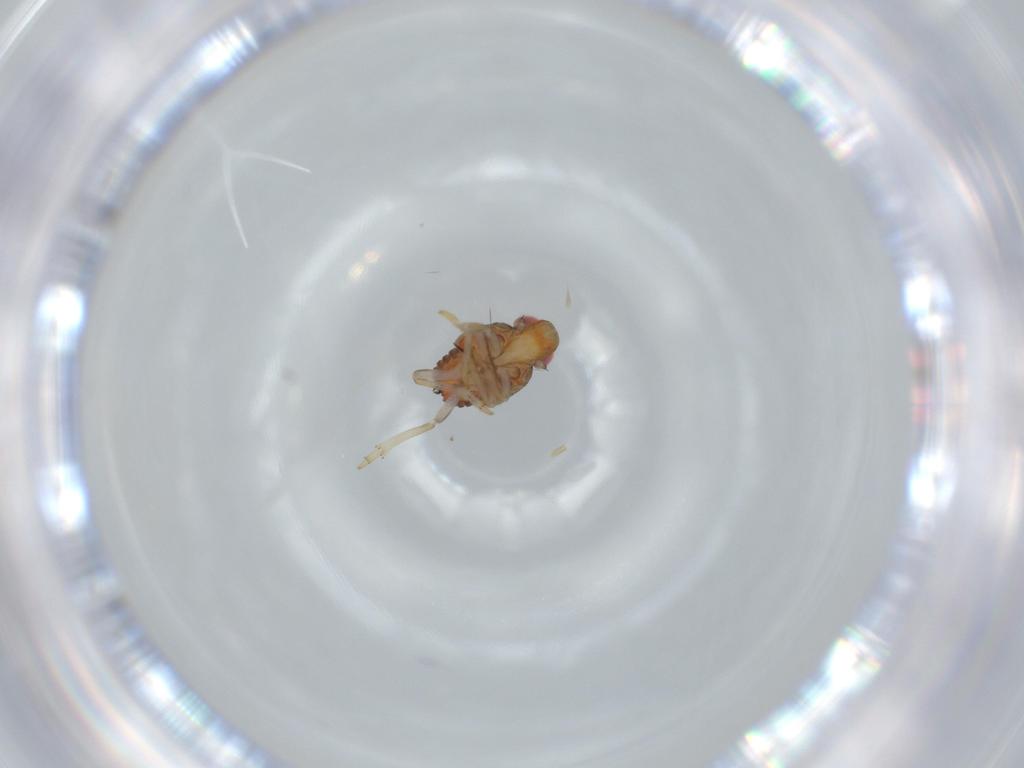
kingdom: Animalia
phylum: Arthropoda
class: Insecta
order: Hemiptera
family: Issidae
